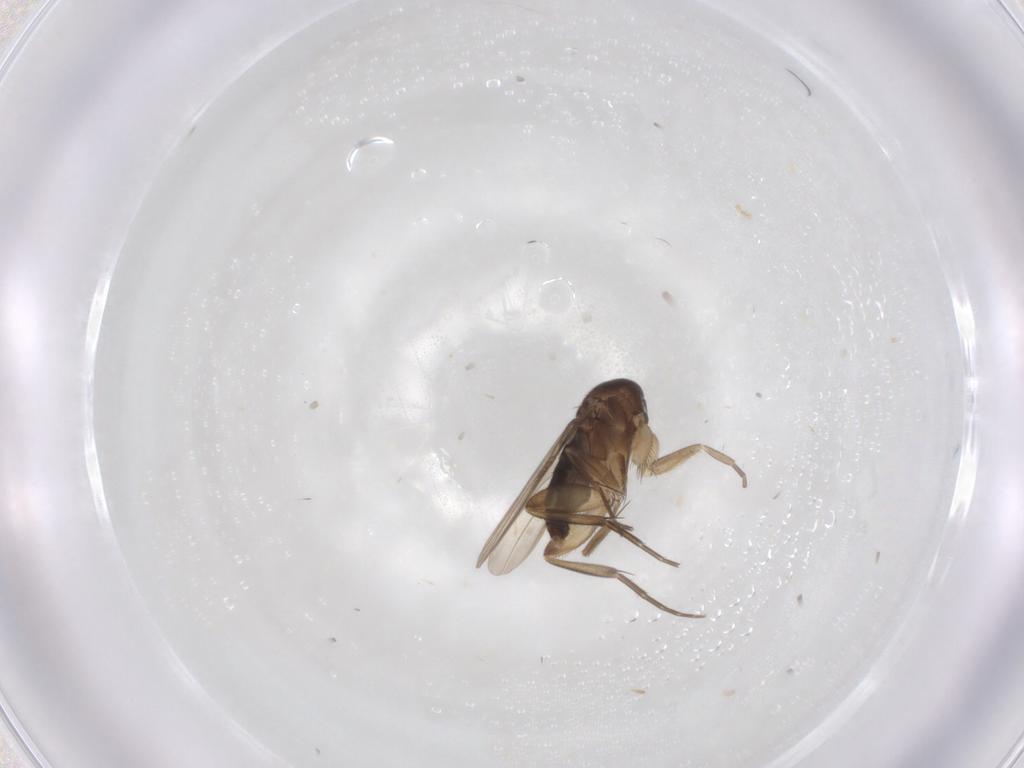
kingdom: Animalia
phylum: Arthropoda
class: Insecta
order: Diptera
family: Phoridae
